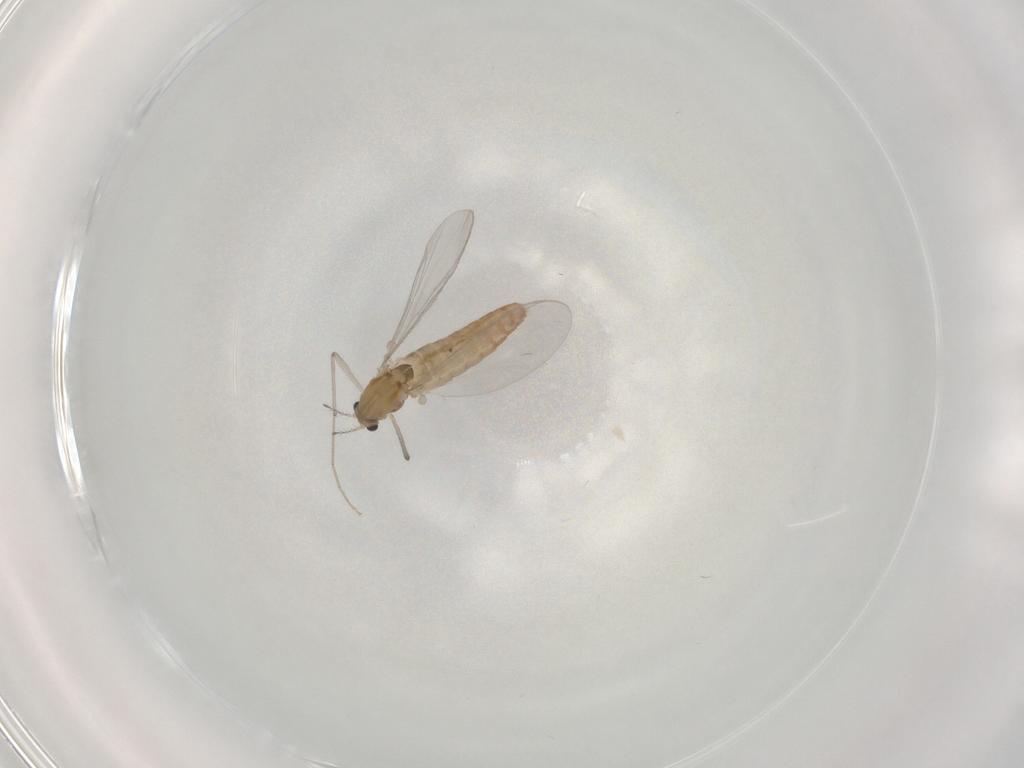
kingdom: Animalia
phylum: Arthropoda
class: Insecta
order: Diptera
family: Chironomidae
